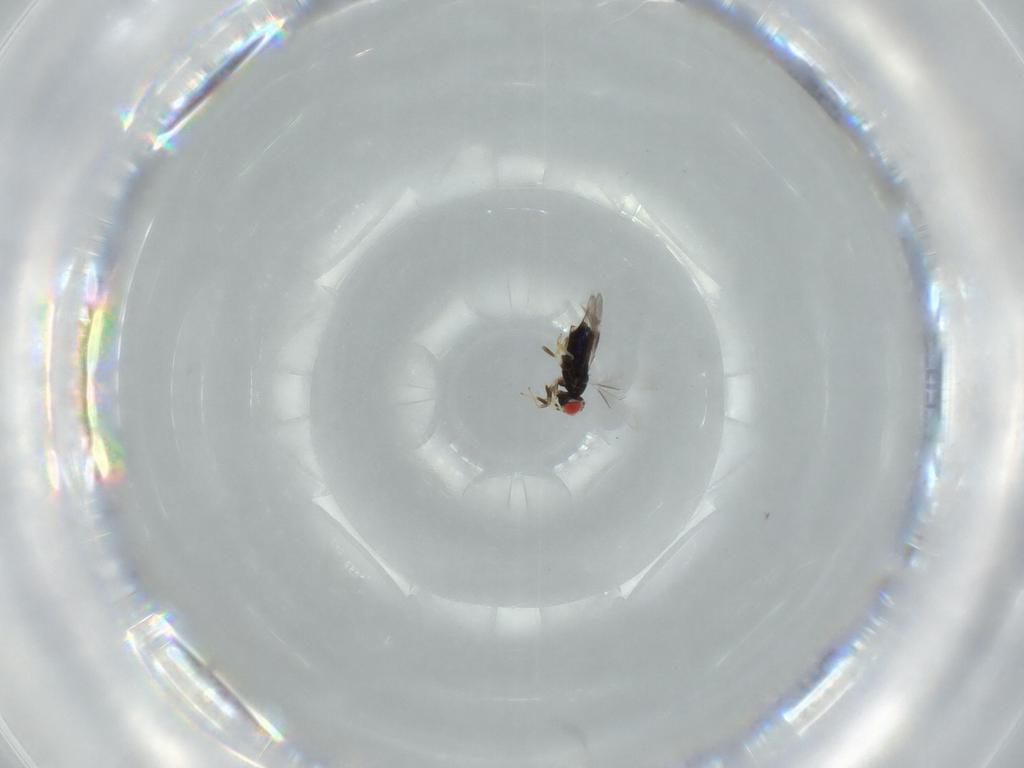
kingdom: Animalia
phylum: Arthropoda
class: Insecta
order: Hymenoptera
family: Azotidae
